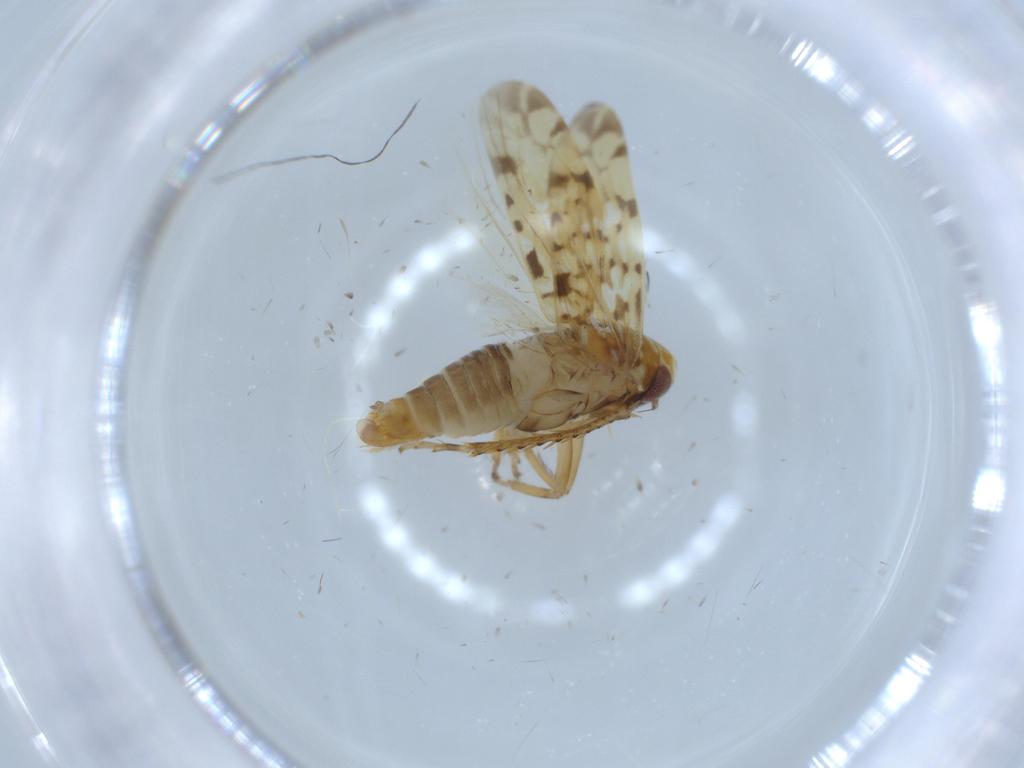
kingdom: Animalia
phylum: Arthropoda
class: Insecta
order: Hemiptera
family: Cicadellidae
